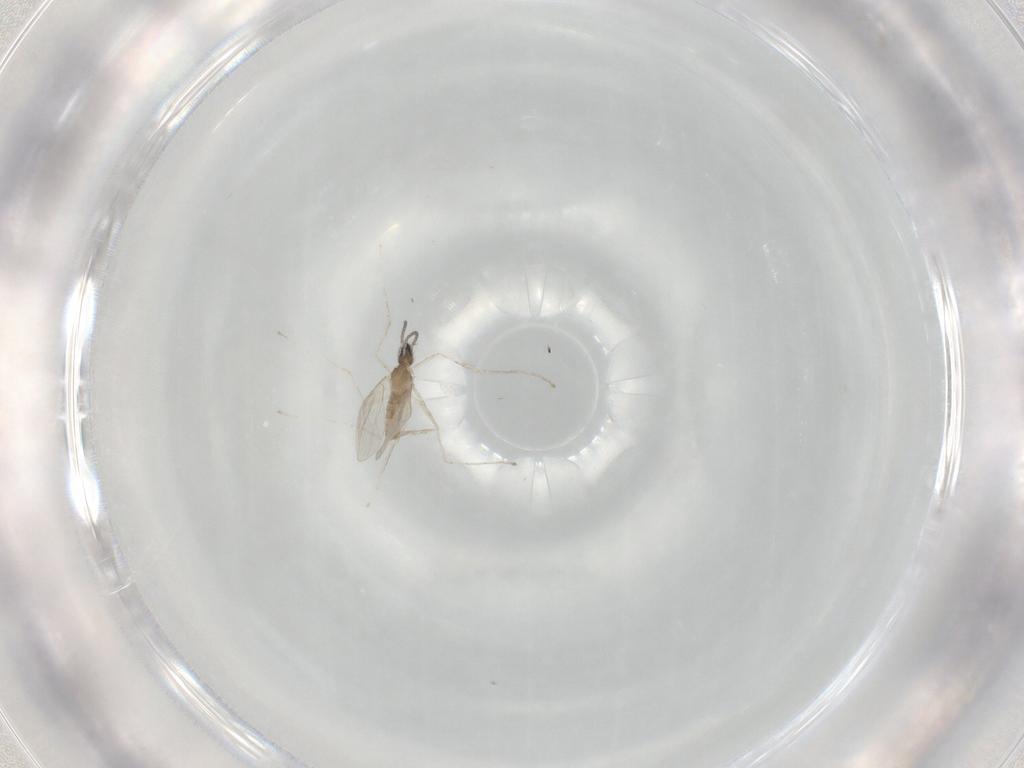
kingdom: Animalia
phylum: Arthropoda
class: Insecta
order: Diptera
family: Cecidomyiidae
